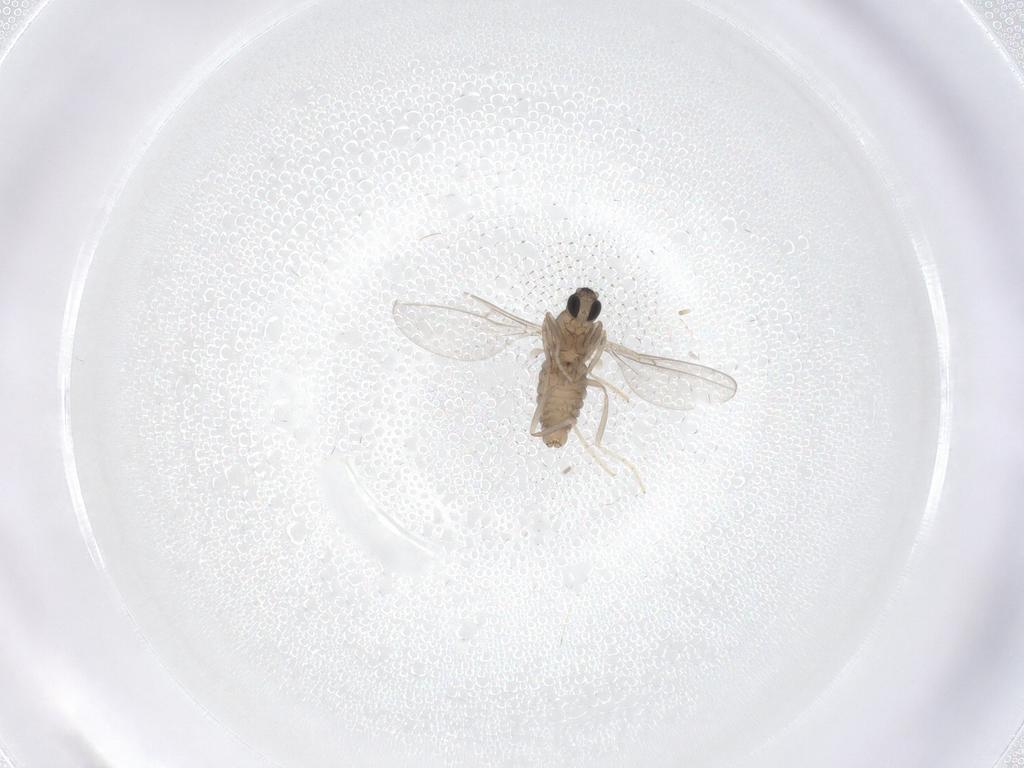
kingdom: Animalia
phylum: Arthropoda
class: Insecta
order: Diptera
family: Cecidomyiidae
